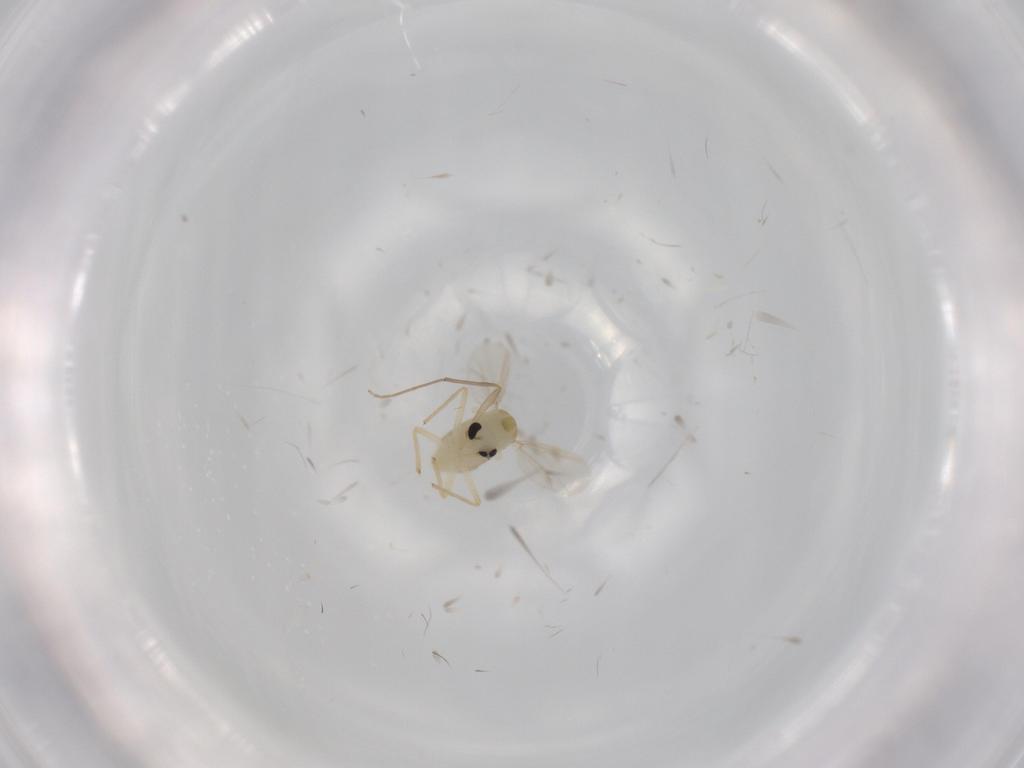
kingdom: Animalia
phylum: Arthropoda
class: Insecta
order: Diptera
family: Chironomidae
